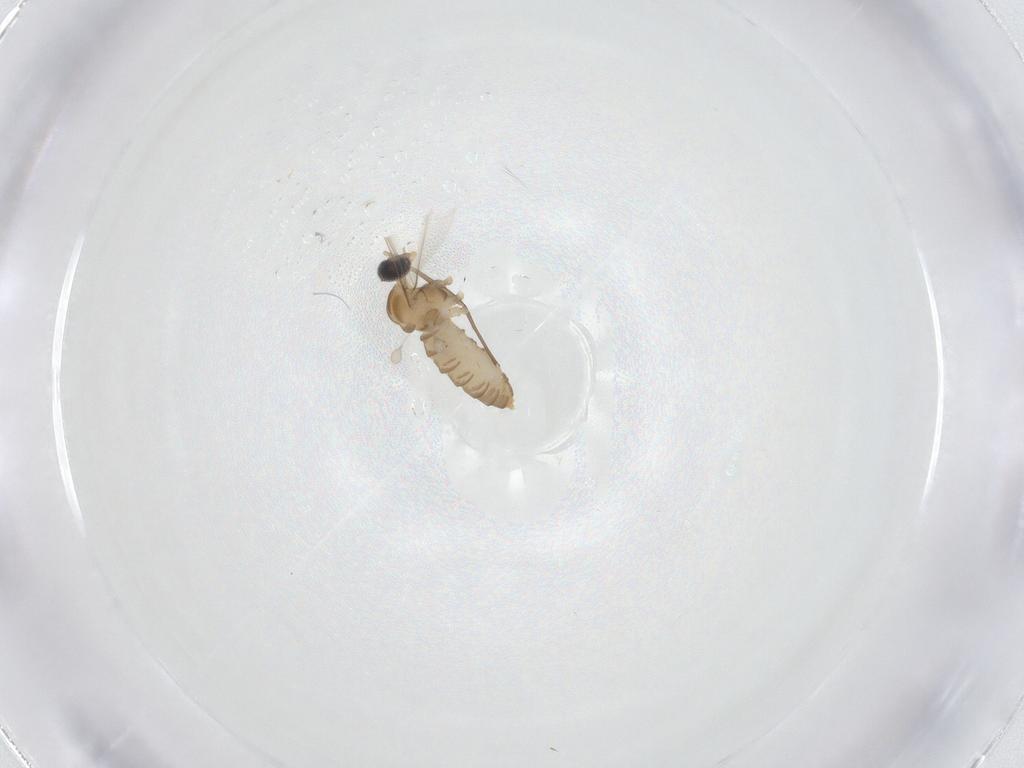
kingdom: Animalia
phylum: Arthropoda
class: Insecta
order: Diptera
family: Cecidomyiidae
